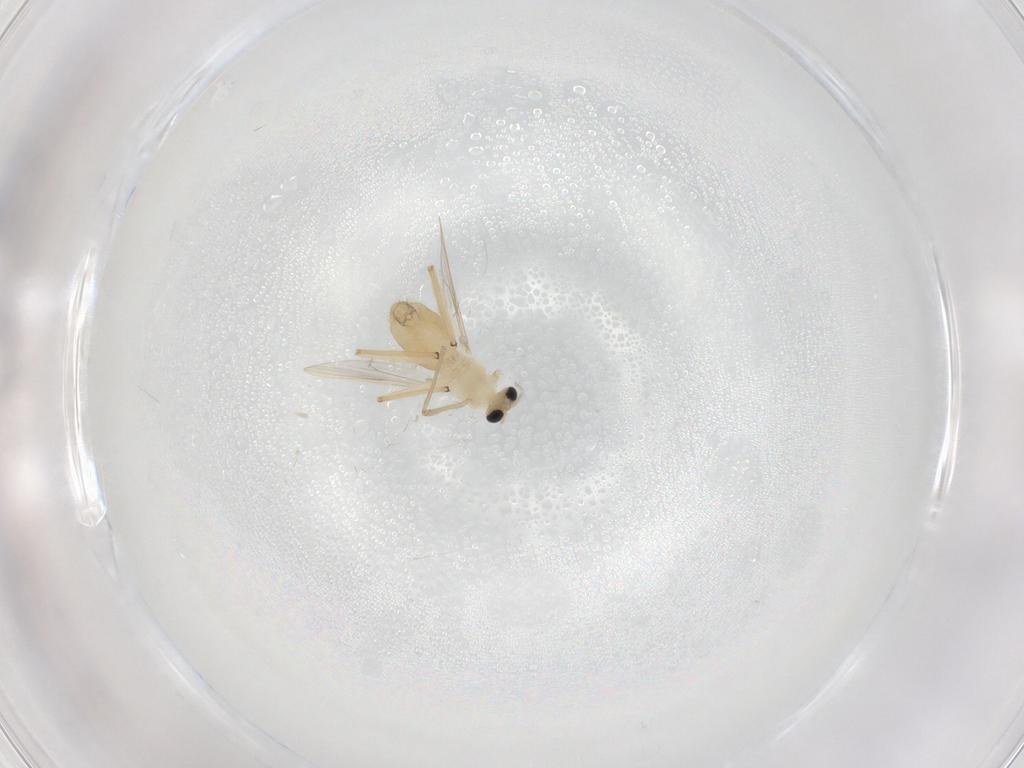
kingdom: Animalia
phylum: Arthropoda
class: Insecta
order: Diptera
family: Chironomidae
